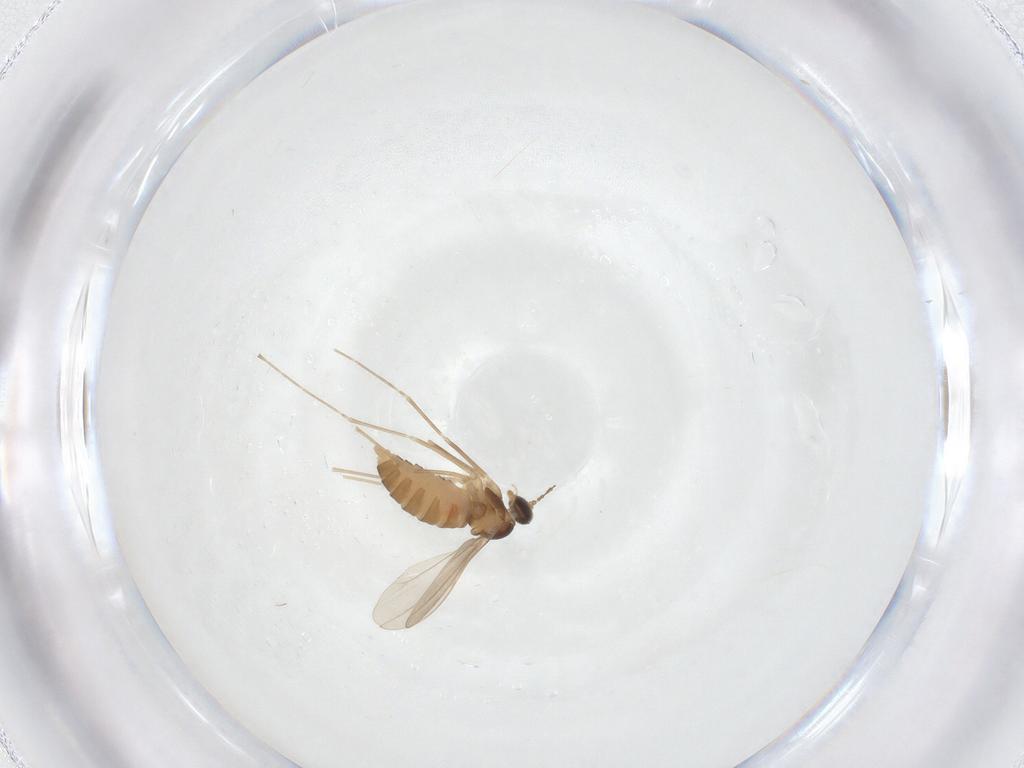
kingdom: Animalia
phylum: Arthropoda
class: Insecta
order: Diptera
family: Cecidomyiidae
